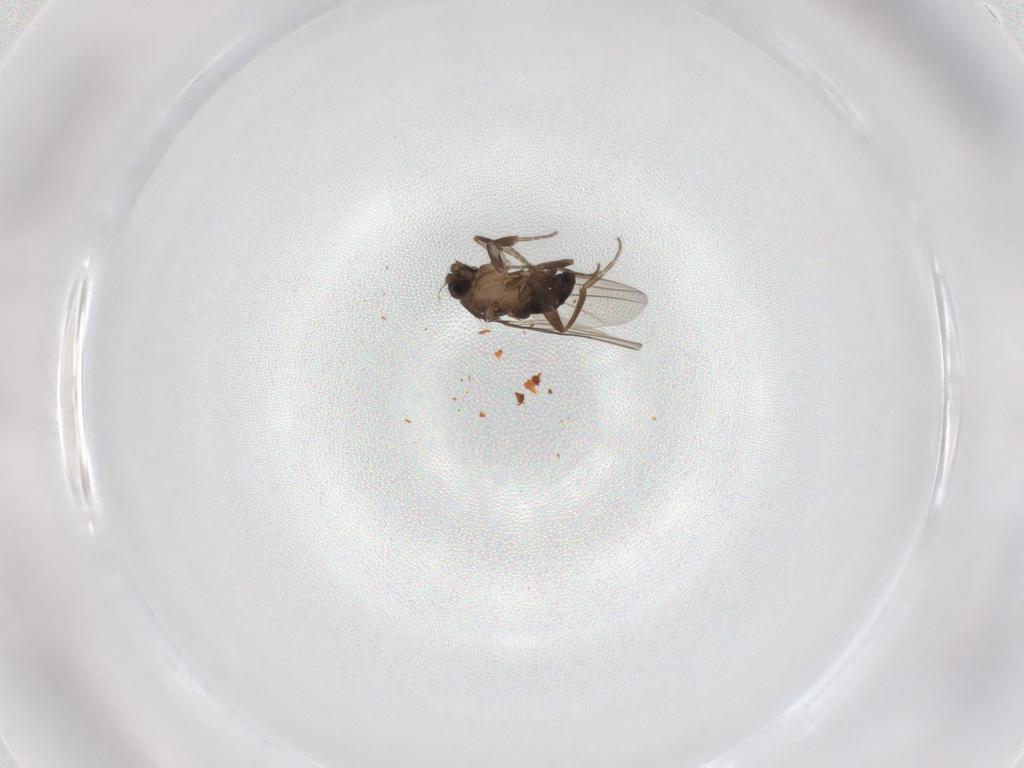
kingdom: Animalia
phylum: Arthropoda
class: Insecta
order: Diptera
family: Phoridae
